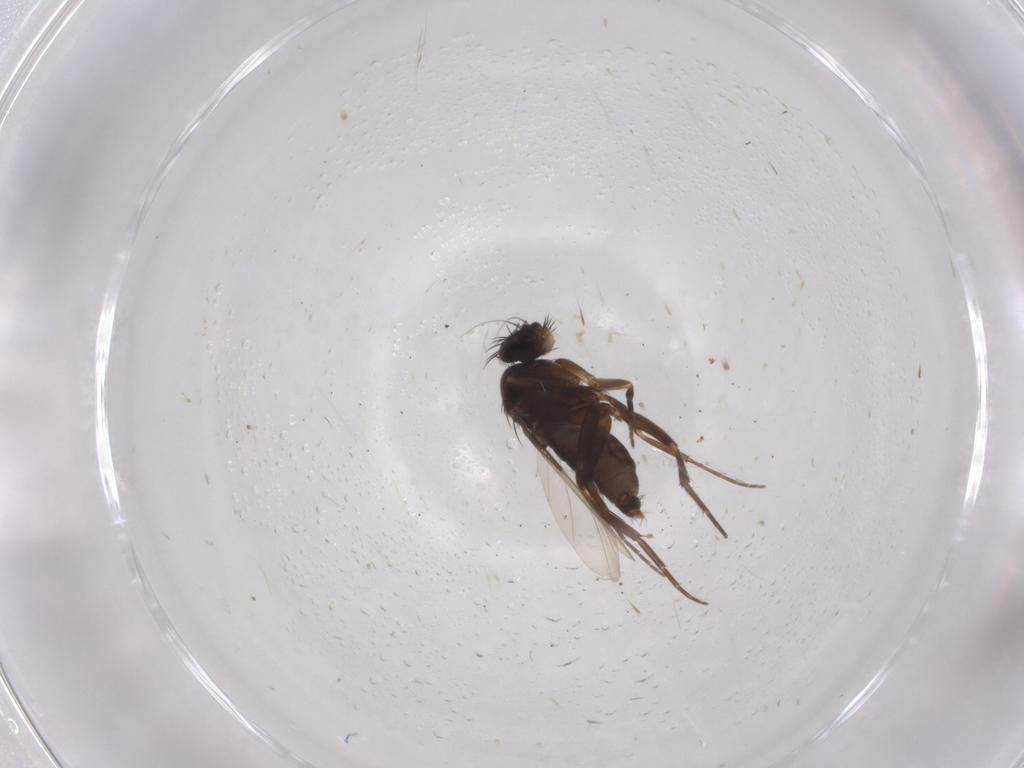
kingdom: Animalia
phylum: Arthropoda
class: Insecta
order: Diptera
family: Phoridae
